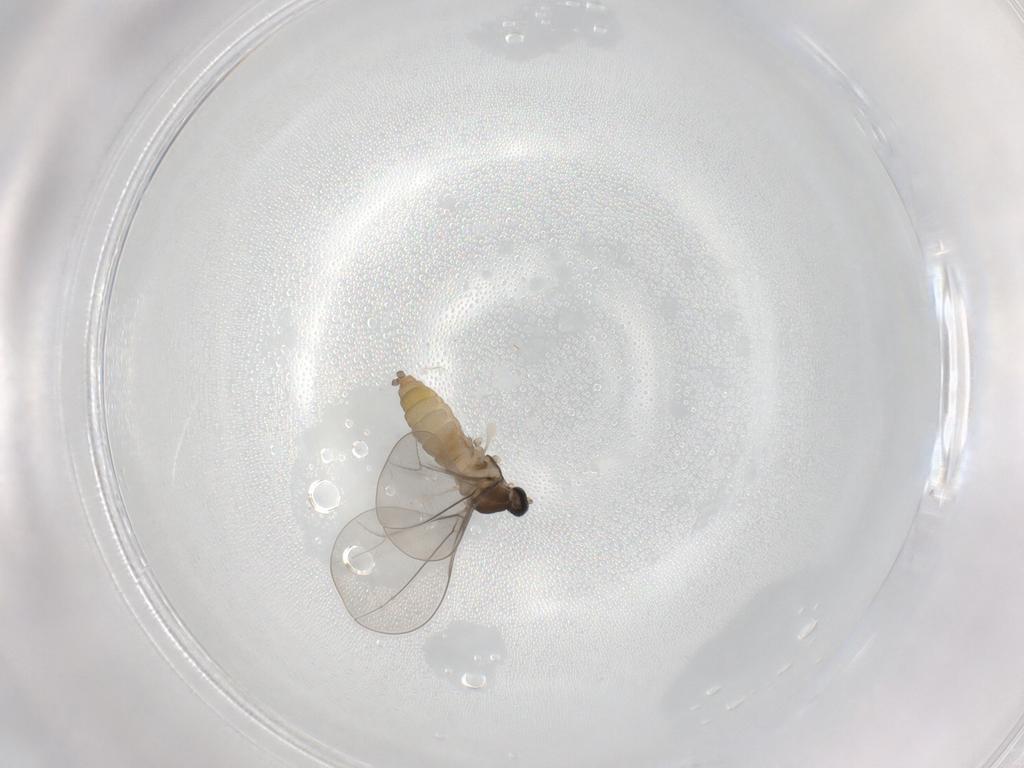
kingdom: Animalia
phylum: Arthropoda
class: Insecta
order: Diptera
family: Cecidomyiidae
